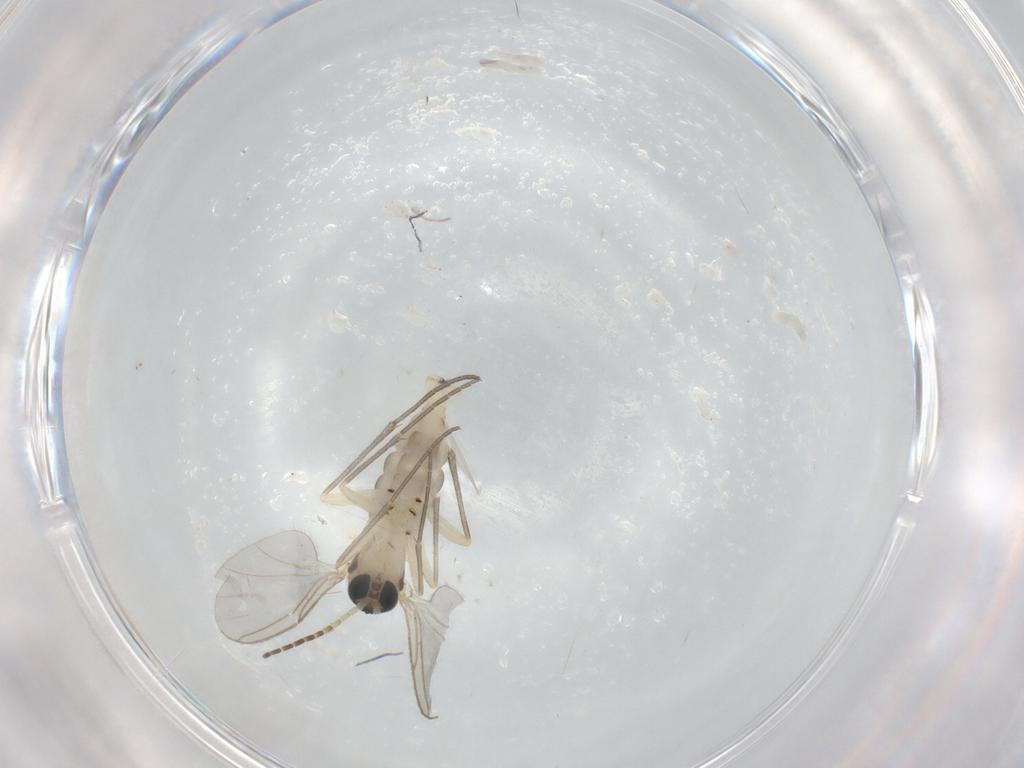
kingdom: Animalia
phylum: Arthropoda
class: Insecta
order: Diptera
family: Sciaridae
